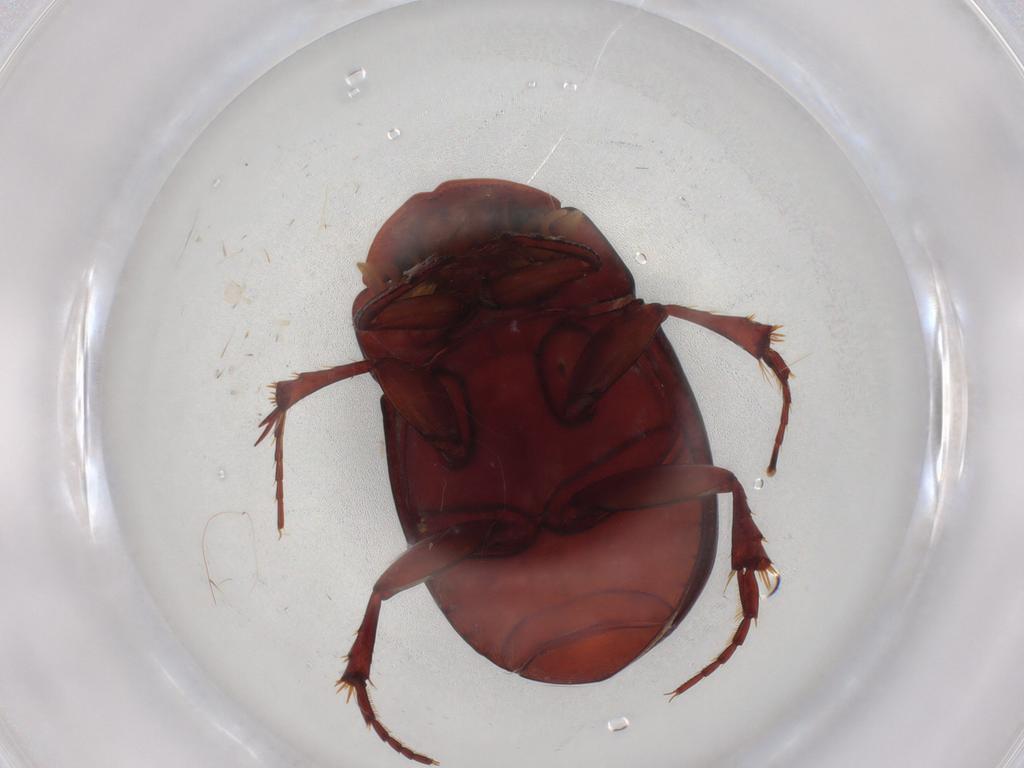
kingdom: Animalia
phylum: Arthropoda
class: Insecta
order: Coleoptera
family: Scarabaeidae
